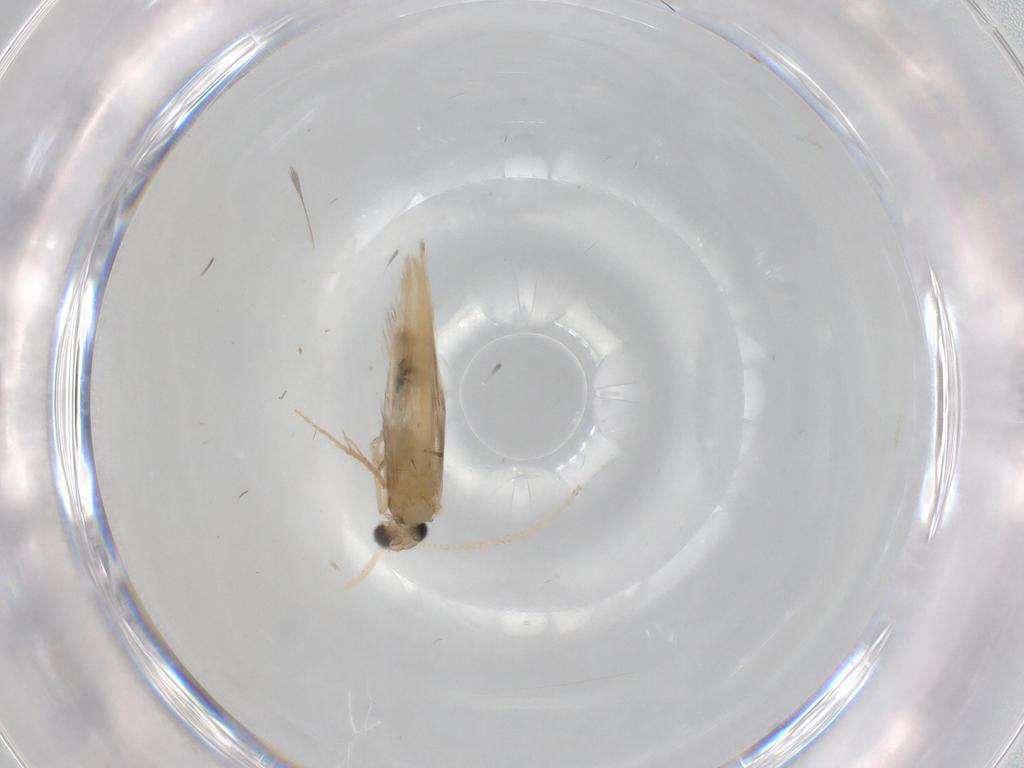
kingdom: Animalia
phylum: Arthropoda
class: Insecta
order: Trichoptera
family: Hydroptilidae
